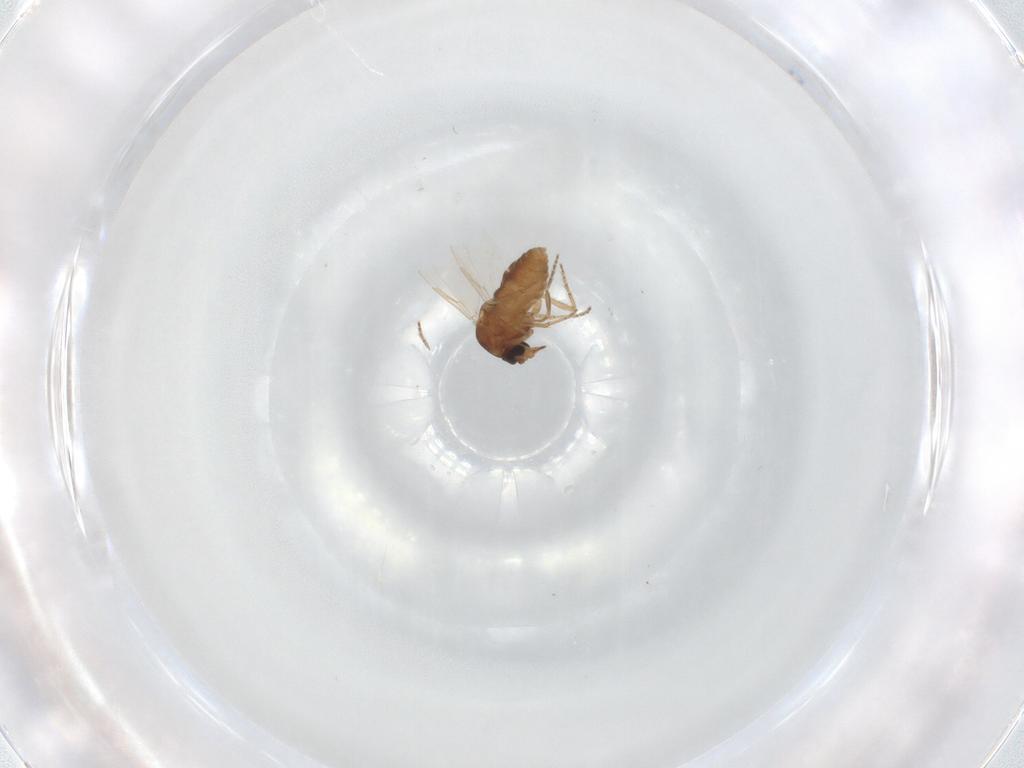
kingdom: Animalia
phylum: Arthropoda
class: Insecta
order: Diptera
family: Ceratopogonidae
